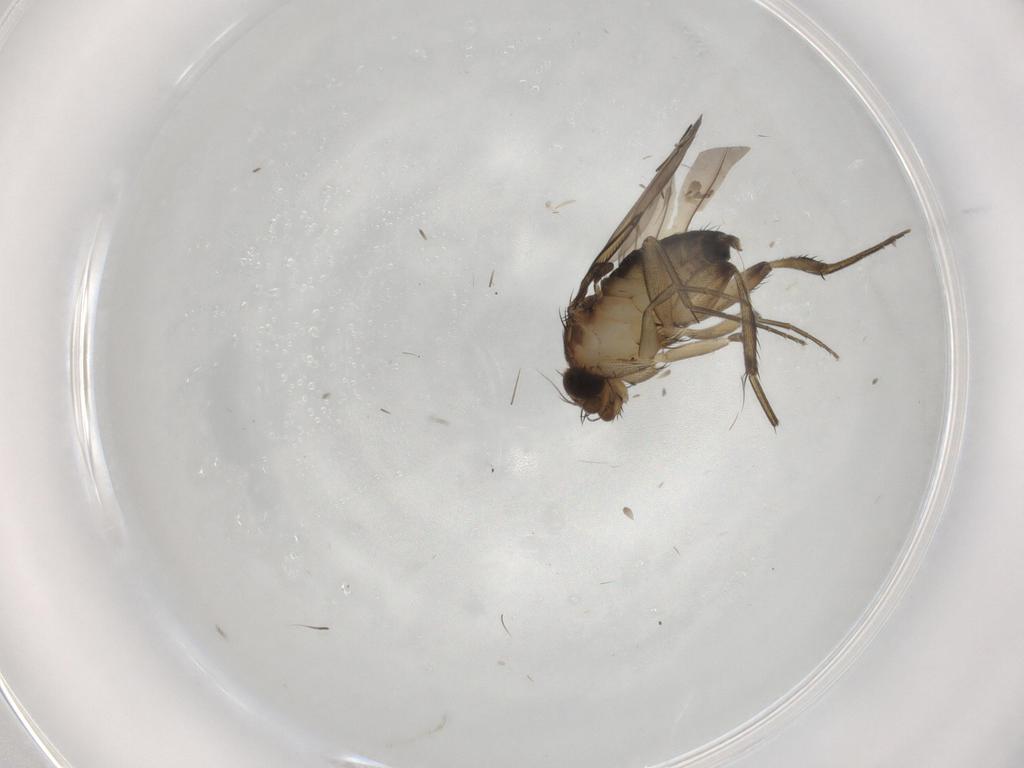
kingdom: Animalia
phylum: Arthropoda
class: Insecta
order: Diptera
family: Phoridae
